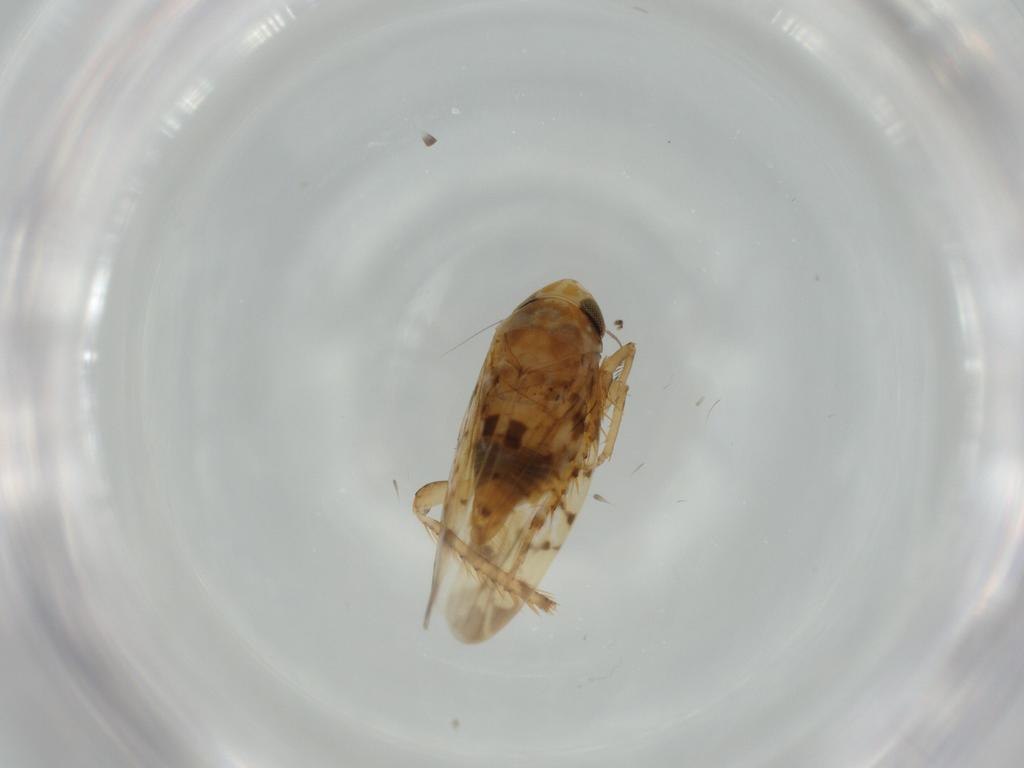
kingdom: Animalia
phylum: Arthropoda
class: Insecta
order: Hemiptera
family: Cicadellidae
